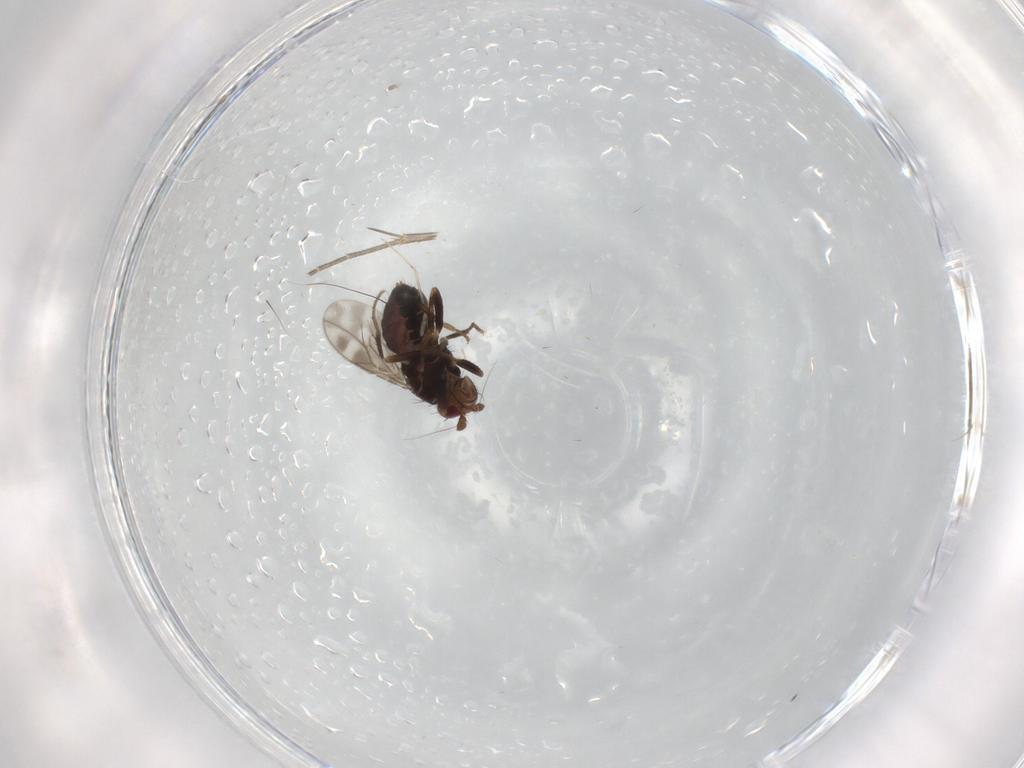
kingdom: Animalia
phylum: Arthropoda
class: Insecta
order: Diptera
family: Sphaeroceridae
